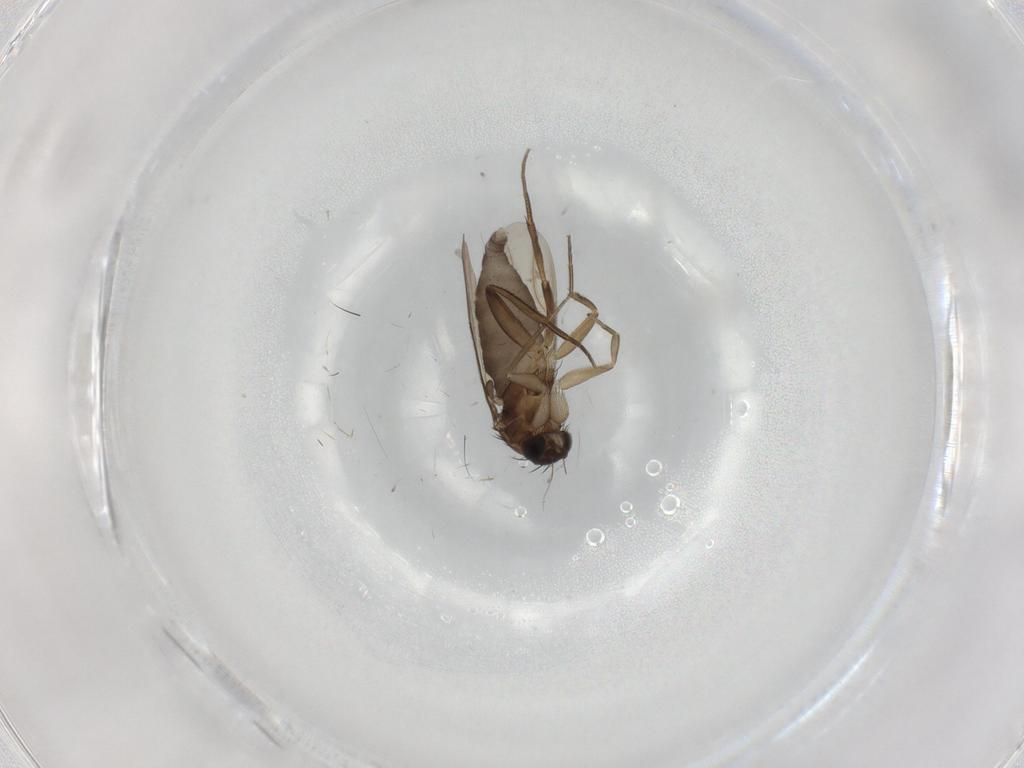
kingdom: Animalia
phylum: Arthropoda
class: Insecta
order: Diptera
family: Phoridae
